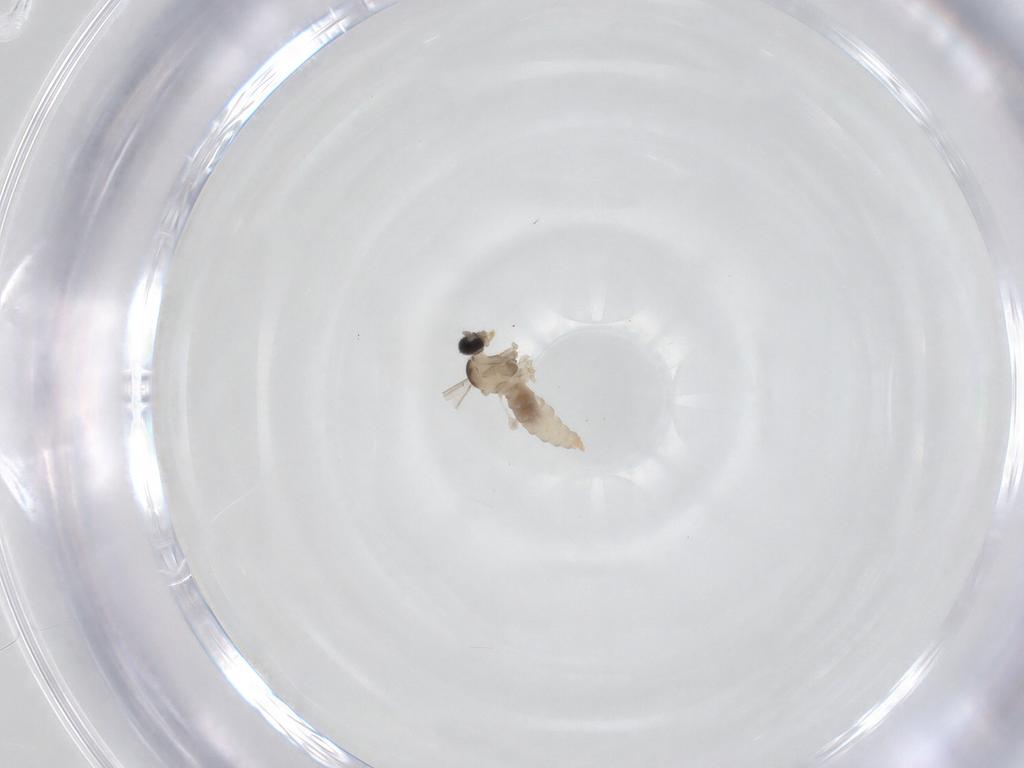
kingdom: Animalia
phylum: Arthropoda
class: Insecta
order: Diptera
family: Cecidomyiidae
